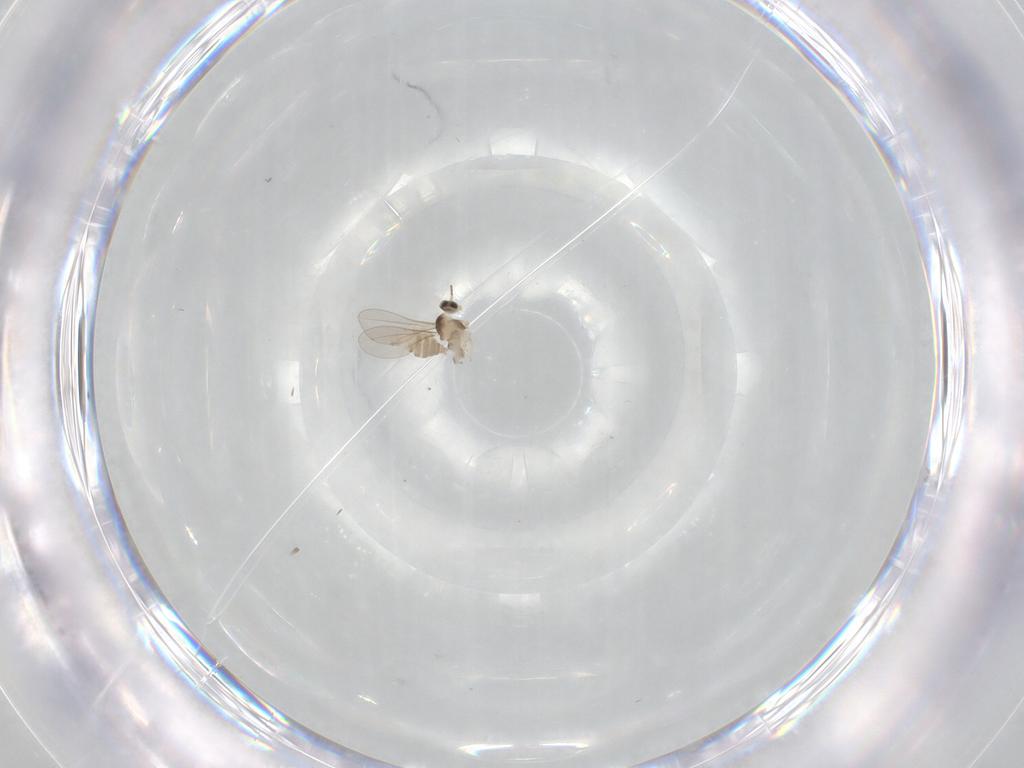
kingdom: Animalia
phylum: Arthropoda
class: Insecta
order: Diptera
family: Cecidomyiidae
